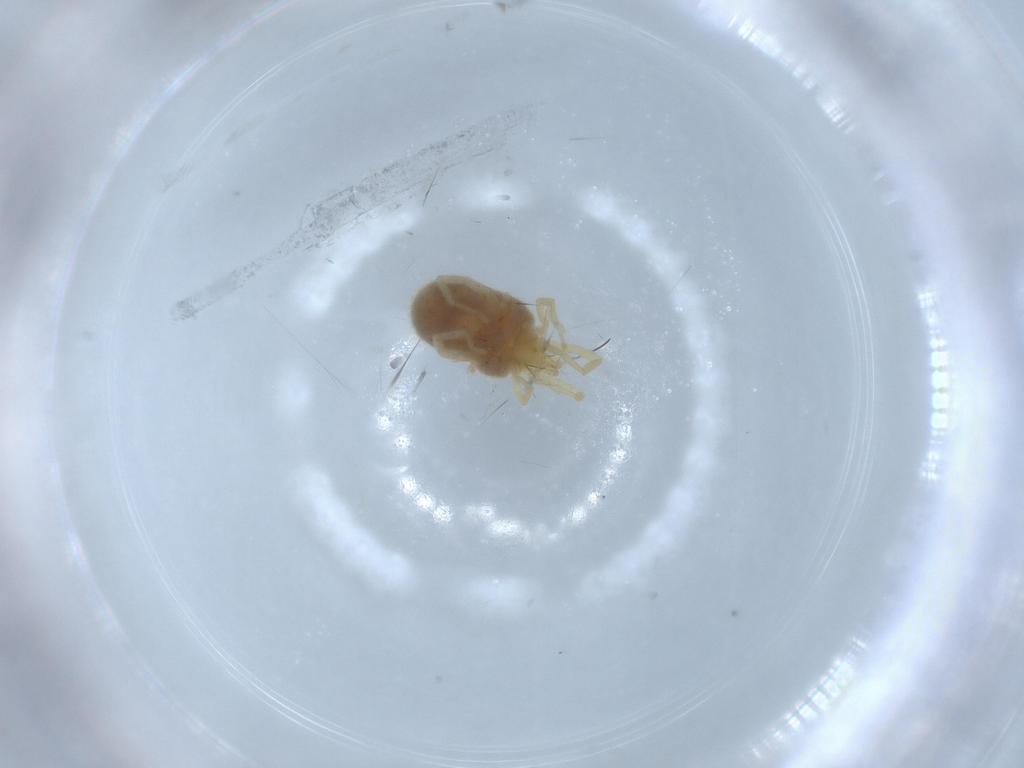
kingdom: Animalia
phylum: Arthropoda
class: Arachnida
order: Trombidiformes
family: Erythraeidae
